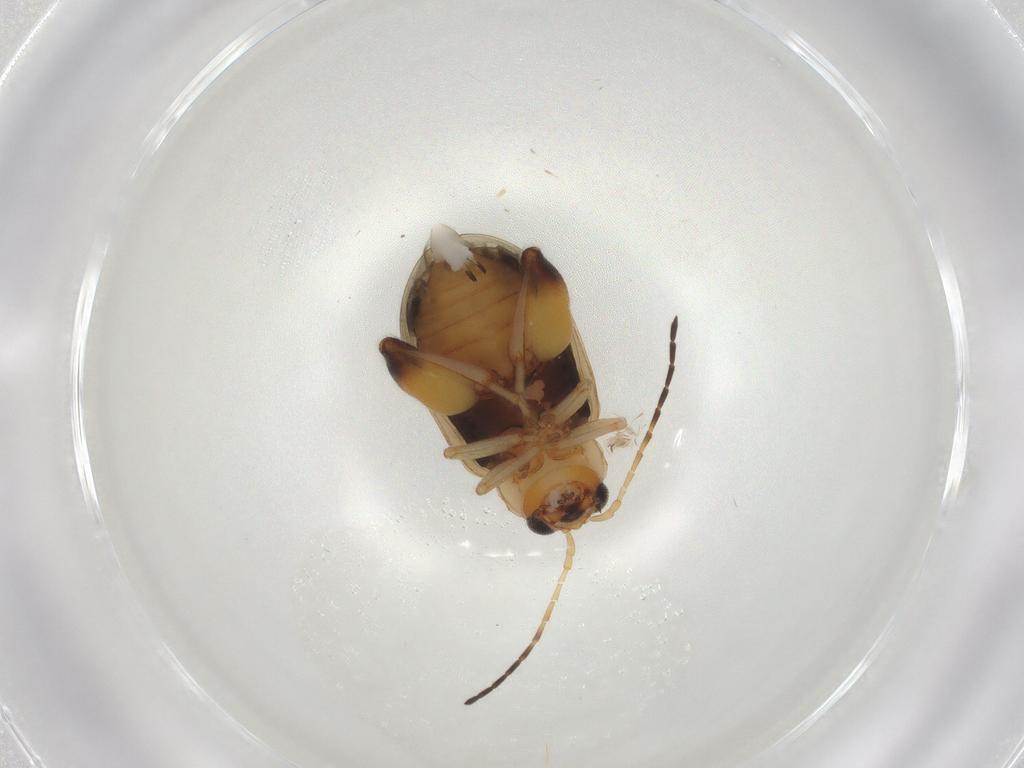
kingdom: Animalia
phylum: Arthropoda
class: Insecta
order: Coleoptera
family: Chrysomelidae
